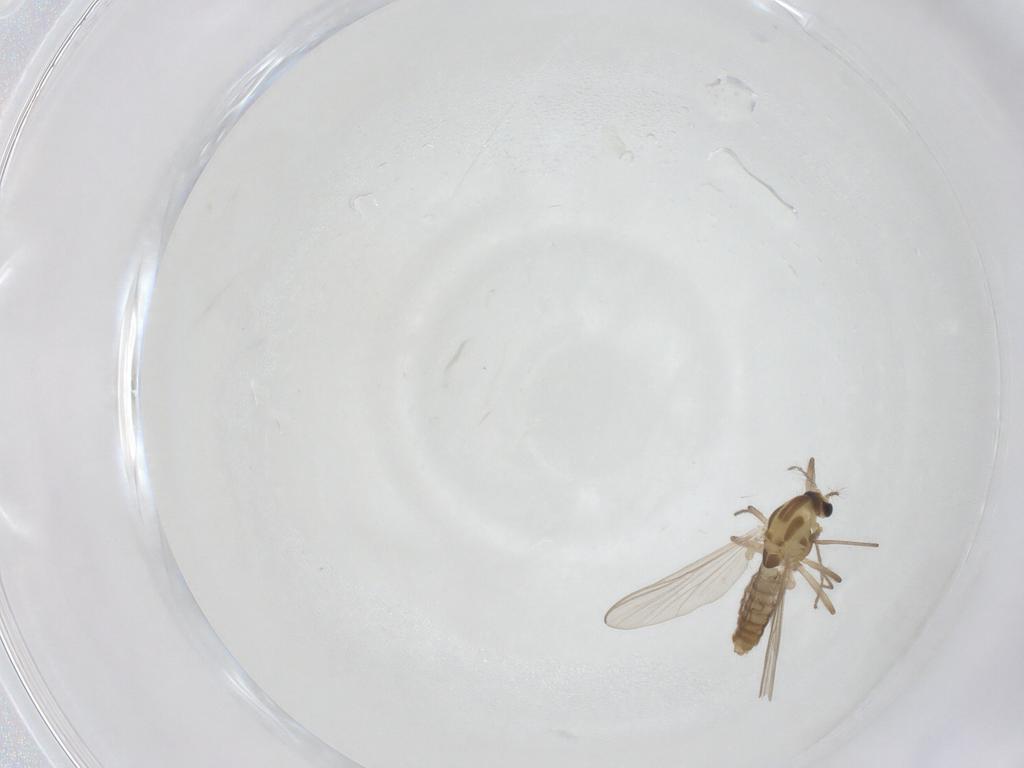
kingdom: Animalia
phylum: Arthropoda
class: Insecta
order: Diptera
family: Chironomidae
